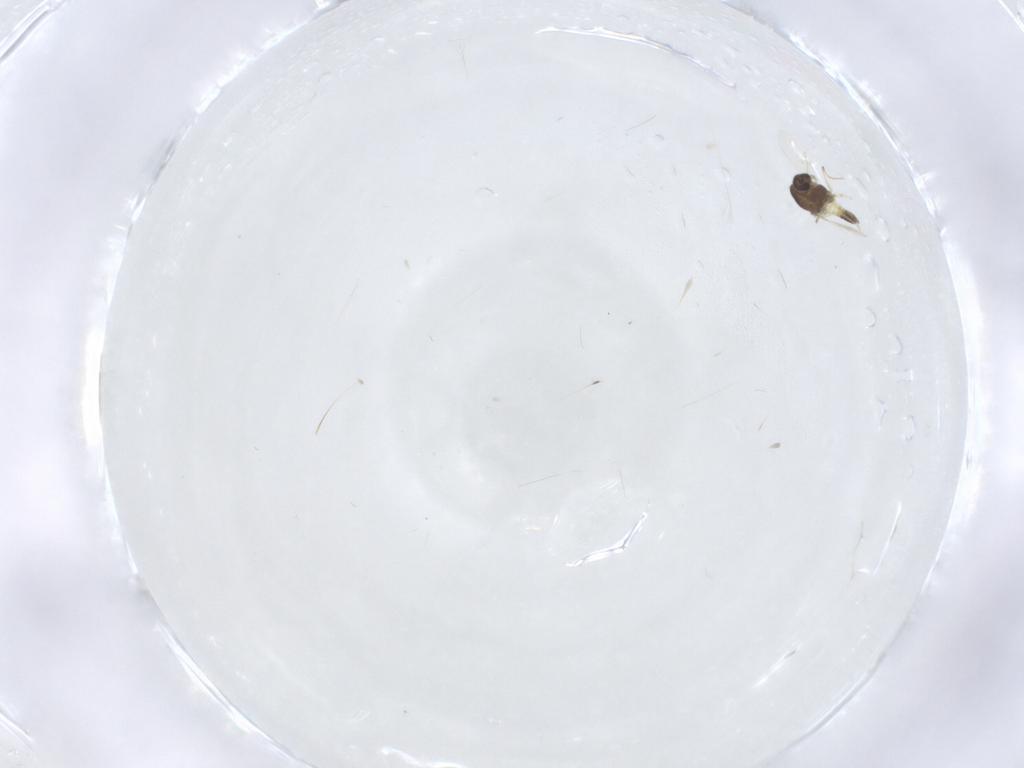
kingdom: Animalia
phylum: Arthropoda
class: Insecta
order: Diptera
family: Chironomidae
